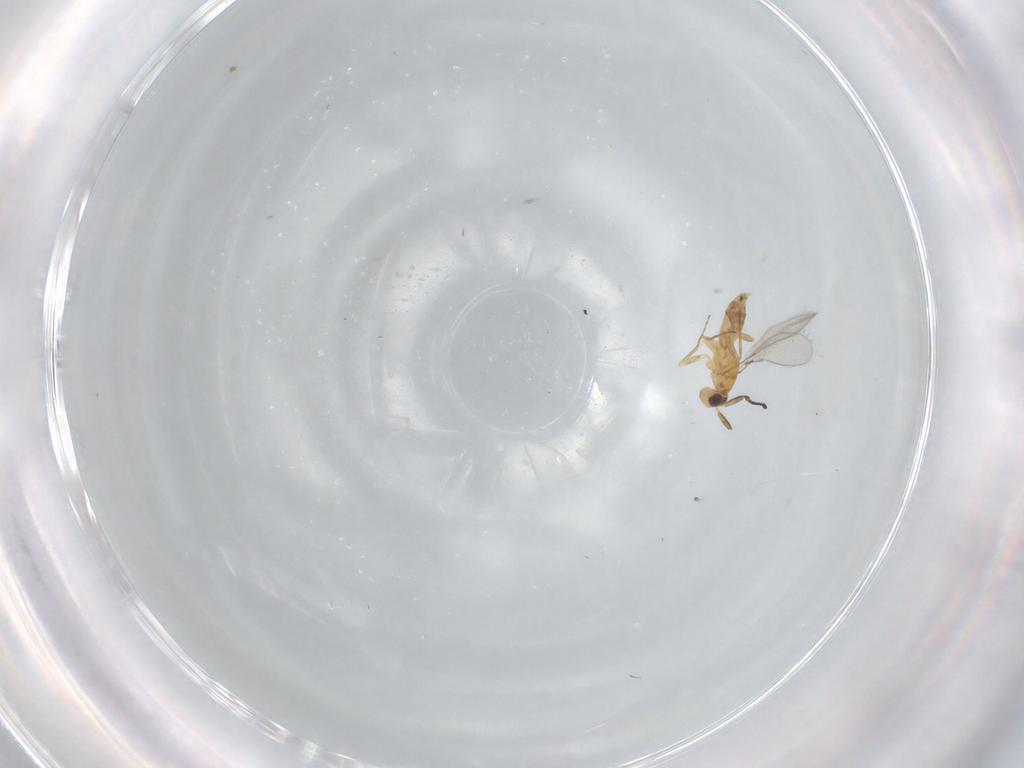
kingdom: Animalia
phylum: Arthropoda
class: Insecta
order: Hymenoptera
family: Mymaridae
